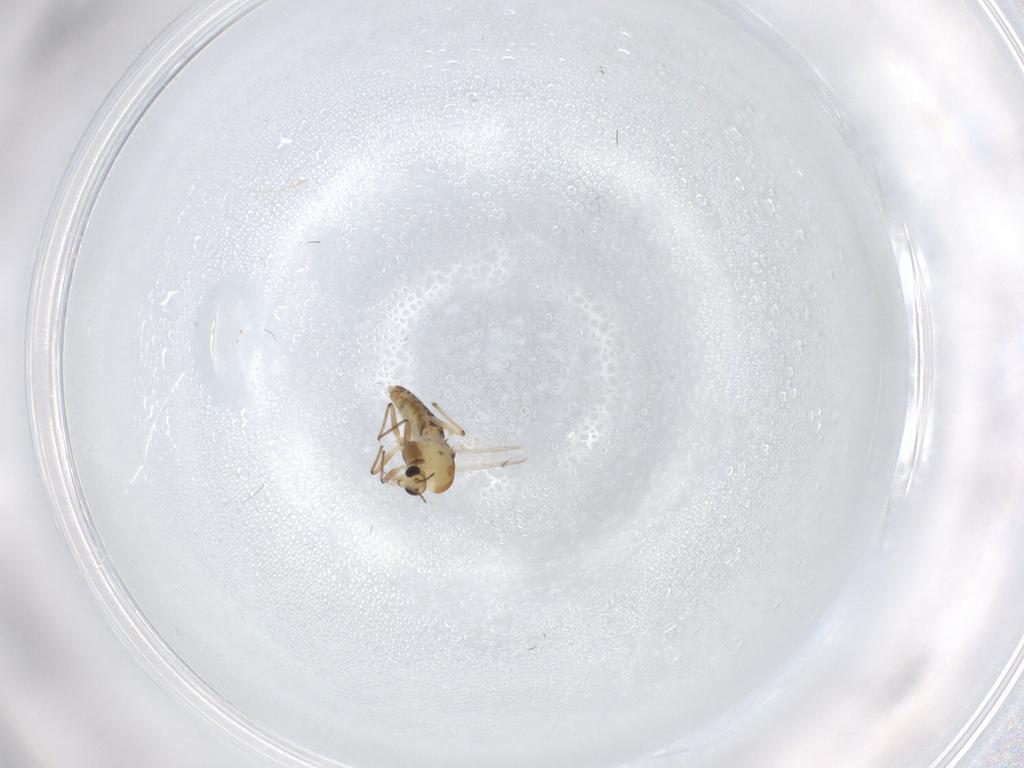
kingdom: Animalia
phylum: Arthropoda
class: Insecta
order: Diptera
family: Chironomidae
